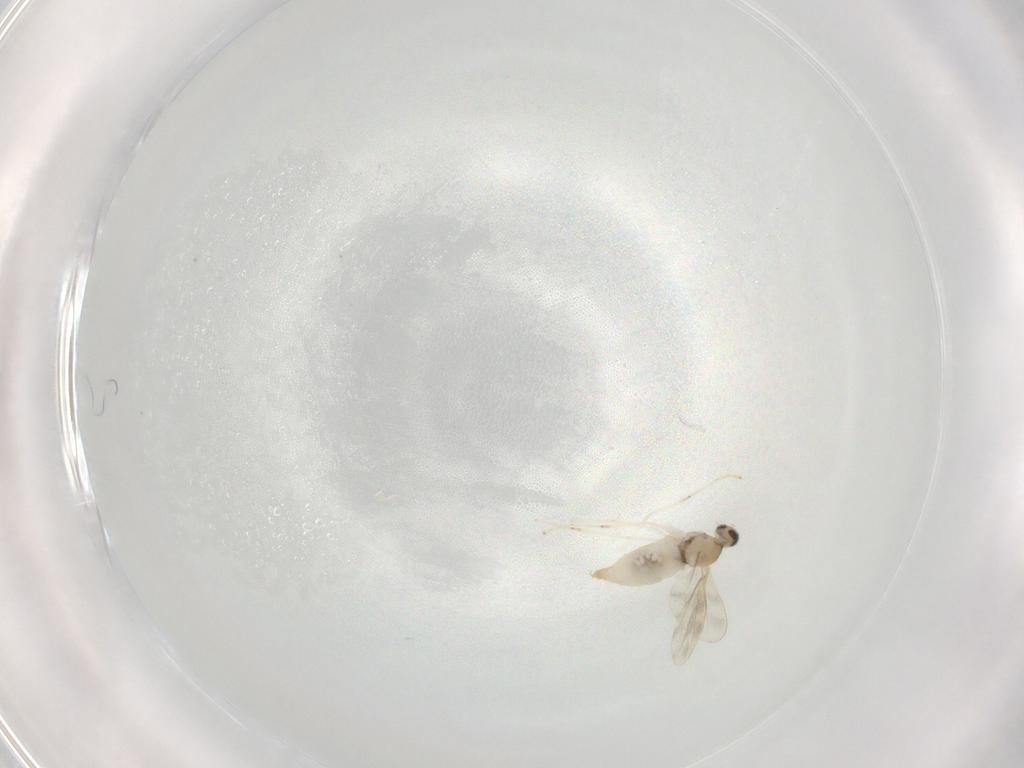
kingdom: Animalia
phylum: Arthropoda
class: Insecta
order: Diptera
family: Cecidomyiidae
